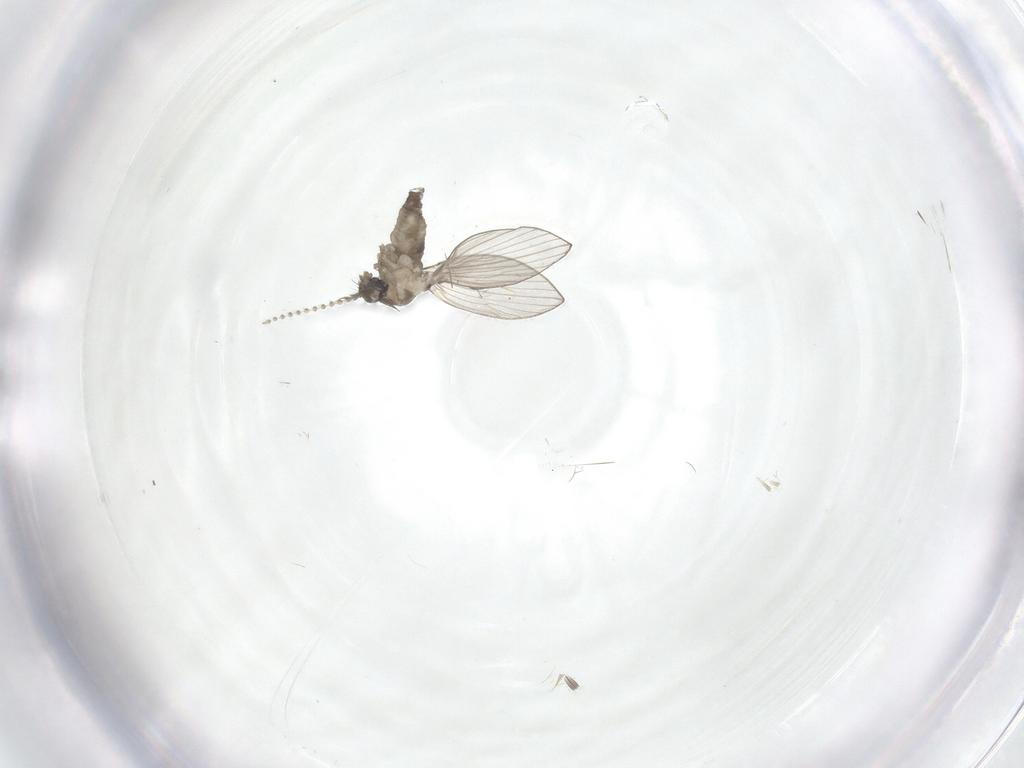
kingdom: Animalia
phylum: Arthropoda
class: Insecta
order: Diptera
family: Psychodidae
